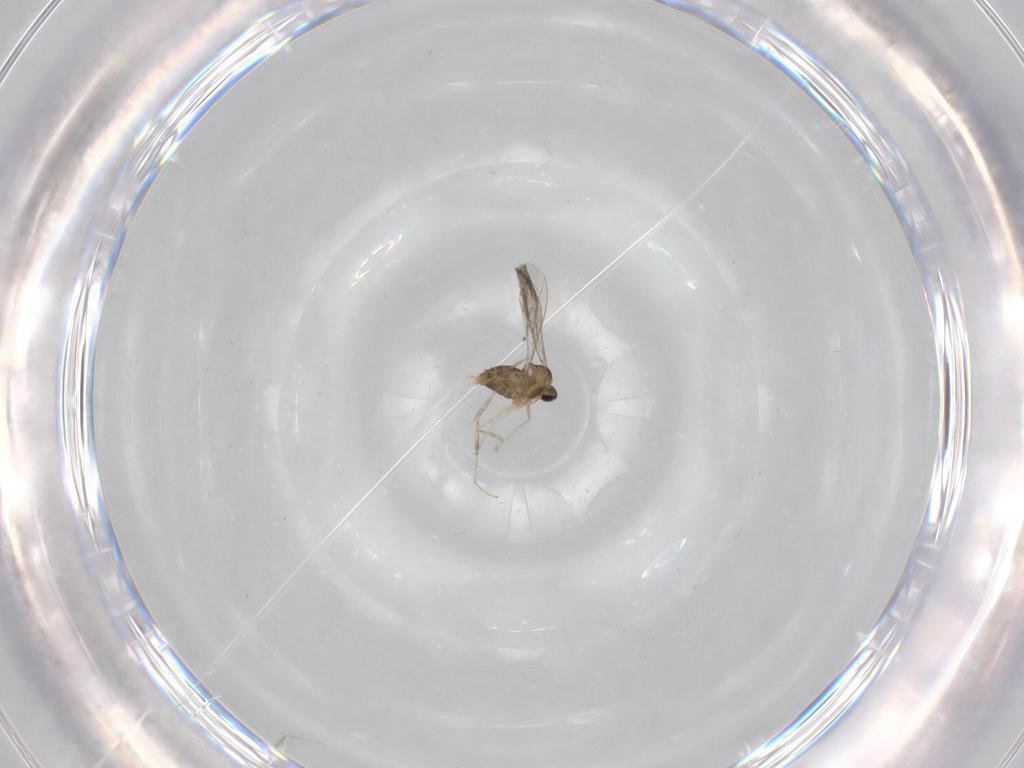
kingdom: Animalia
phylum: Arthropoda
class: Insecta
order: Diptera
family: Cecidomyiidae
